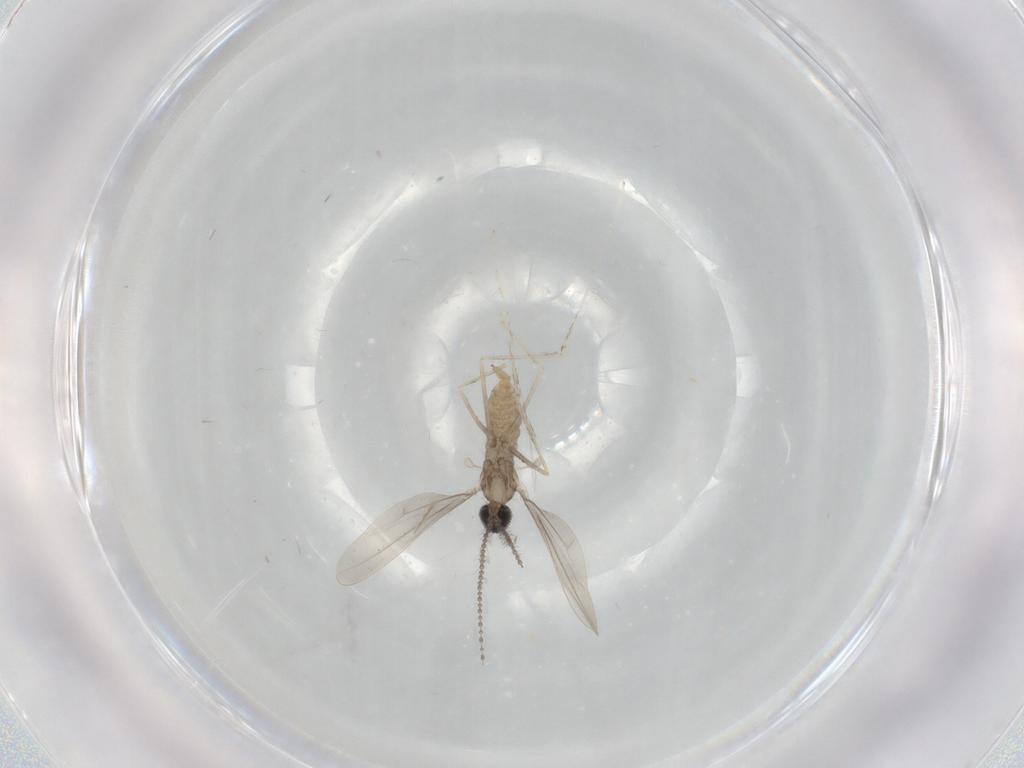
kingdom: Animalia
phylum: Arthropoda
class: Insecta
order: Diptera
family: Cecidomyiidae
